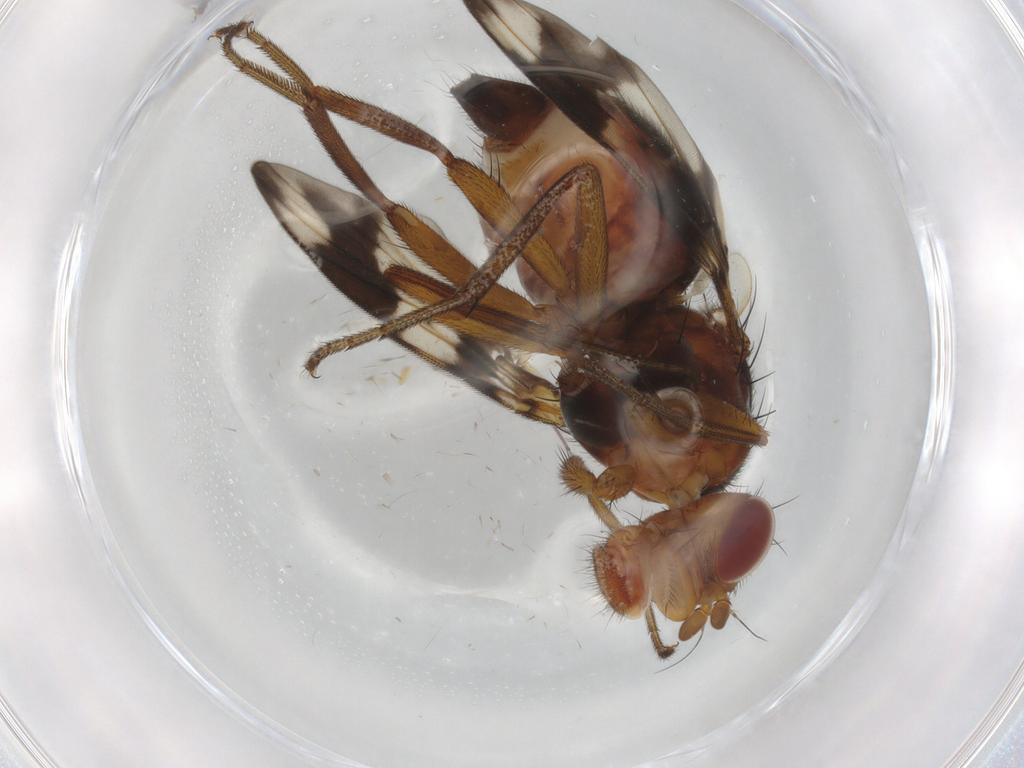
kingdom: Animalia
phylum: Arthropoda
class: Insecta
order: Diptera
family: Richardiidae
